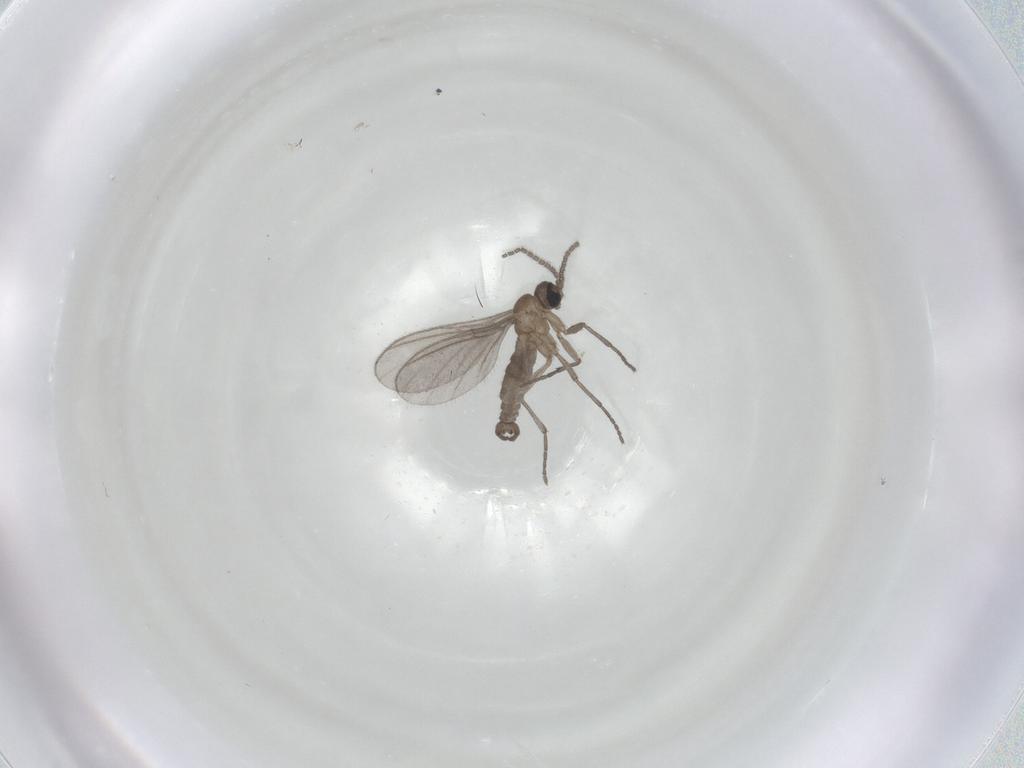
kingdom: Animalia
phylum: Arthropoda
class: Insecta
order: Diptera
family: Sciaridae
